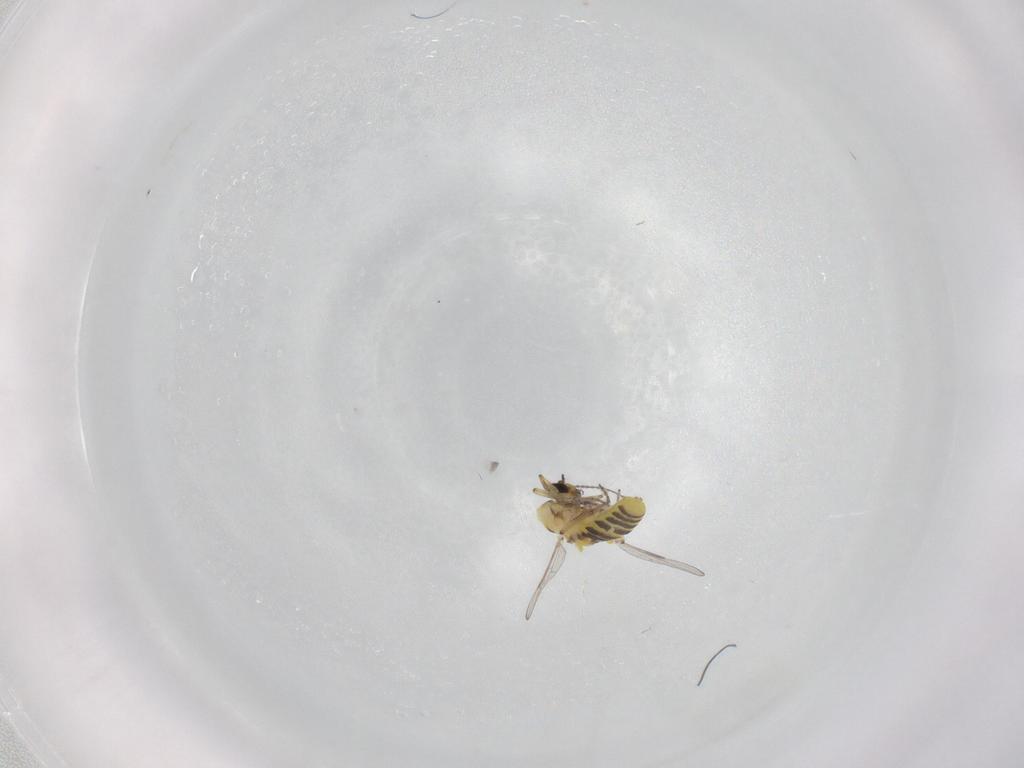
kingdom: Animalia
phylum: Arthropoda
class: Insecta
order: Diptera
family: Ceratopogonidae
